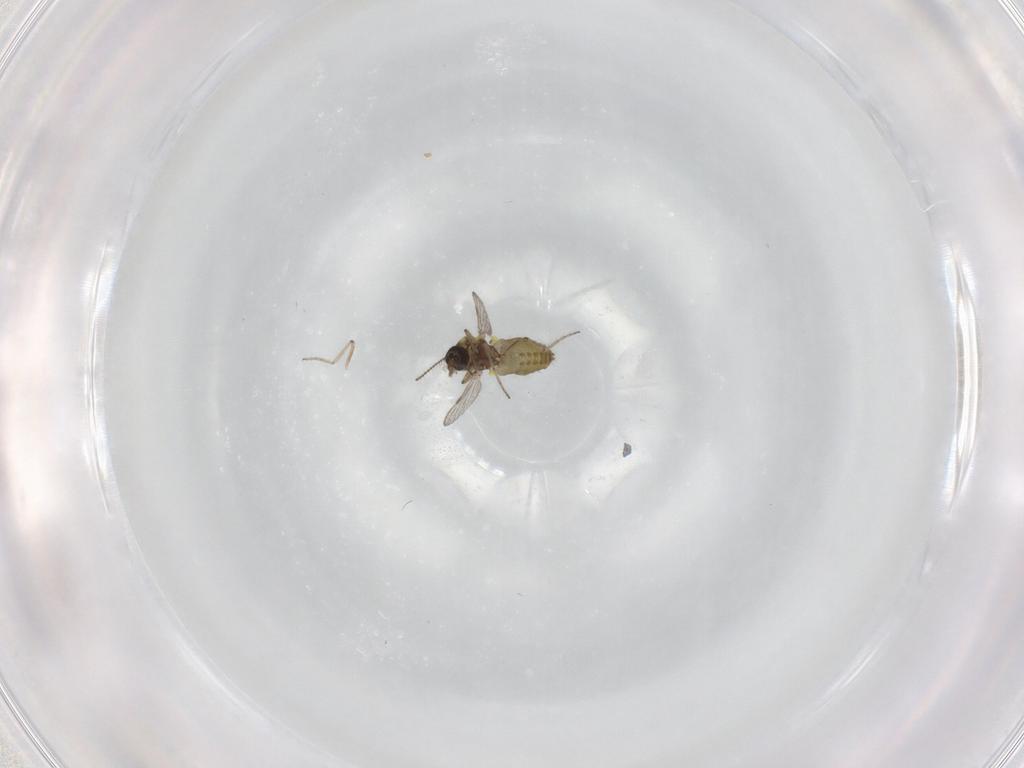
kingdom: Animalia
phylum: Arthropoda
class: Insecta
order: Diptera
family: Ceratopogonidae
